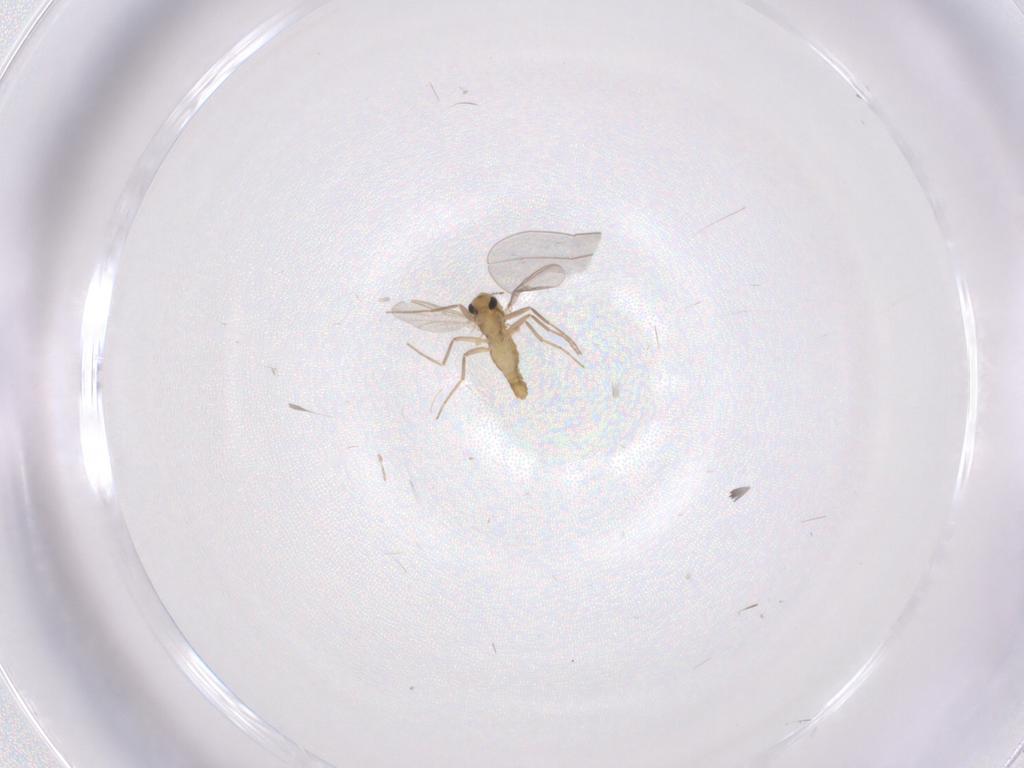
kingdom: Animalia
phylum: Arthropoda
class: Insecta
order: Diptera
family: Chironomidae
